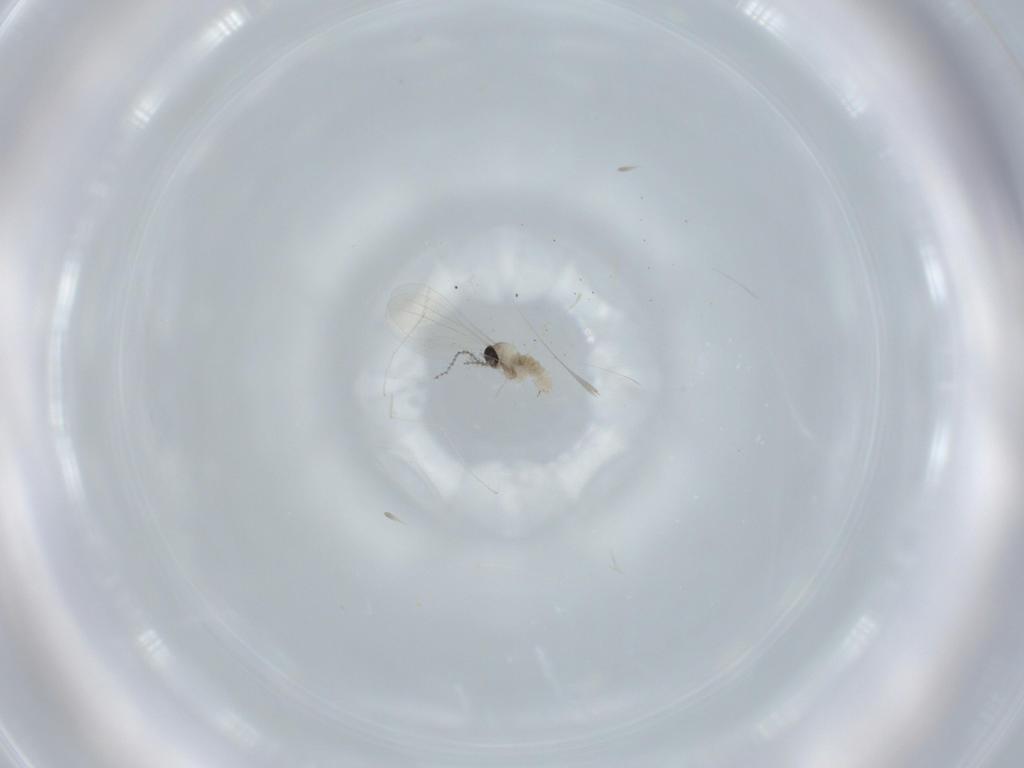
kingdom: Animalia
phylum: Arthropoda
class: Insecta
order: Diptera
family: Cecidomyiidae
